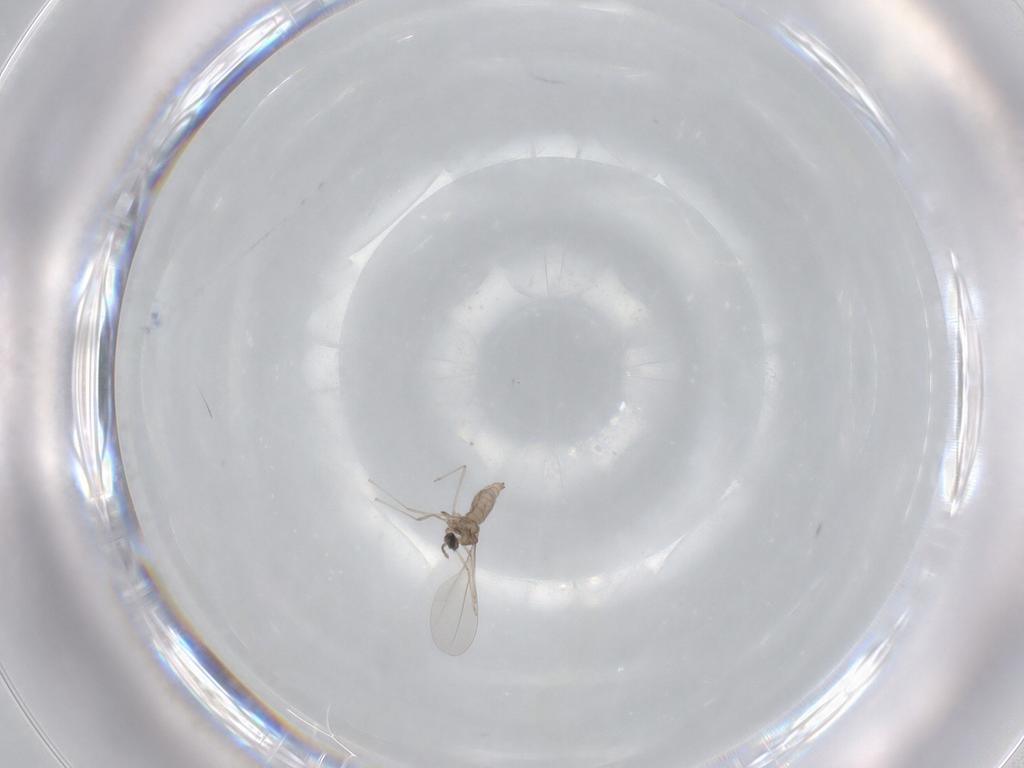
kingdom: Animalia
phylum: Arthropoda
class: Insecta
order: Diptera
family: Cecidomyiidae
